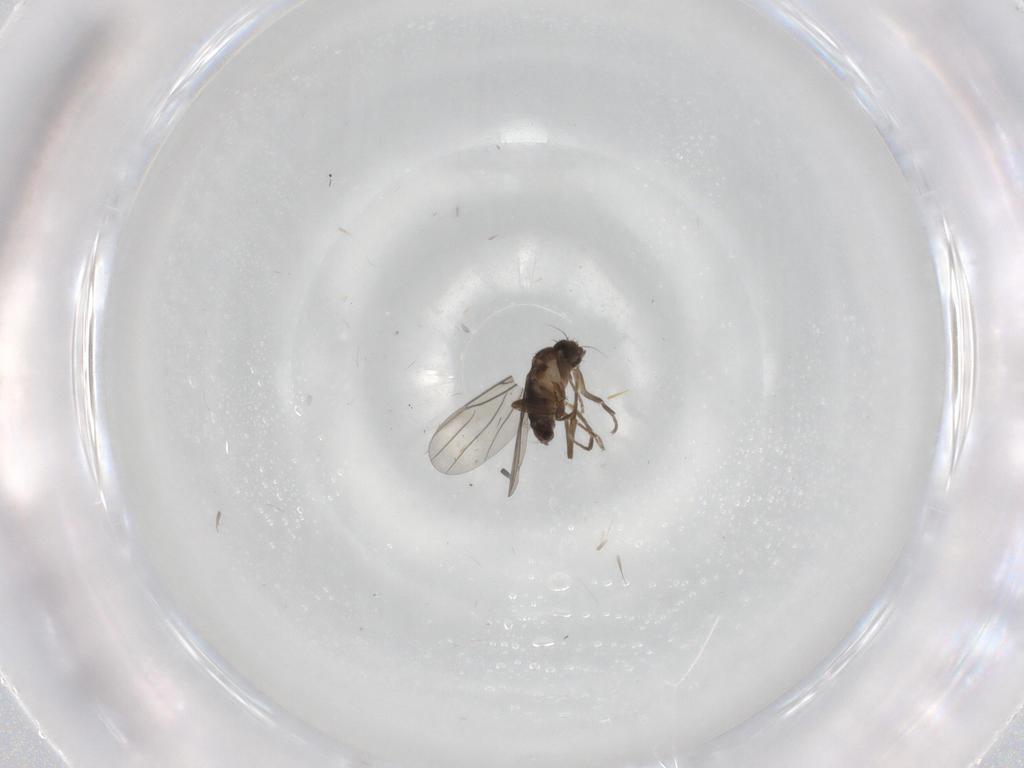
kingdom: Animalia
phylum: Arthropoda
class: Insecta
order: Diptera
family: Phoridae
